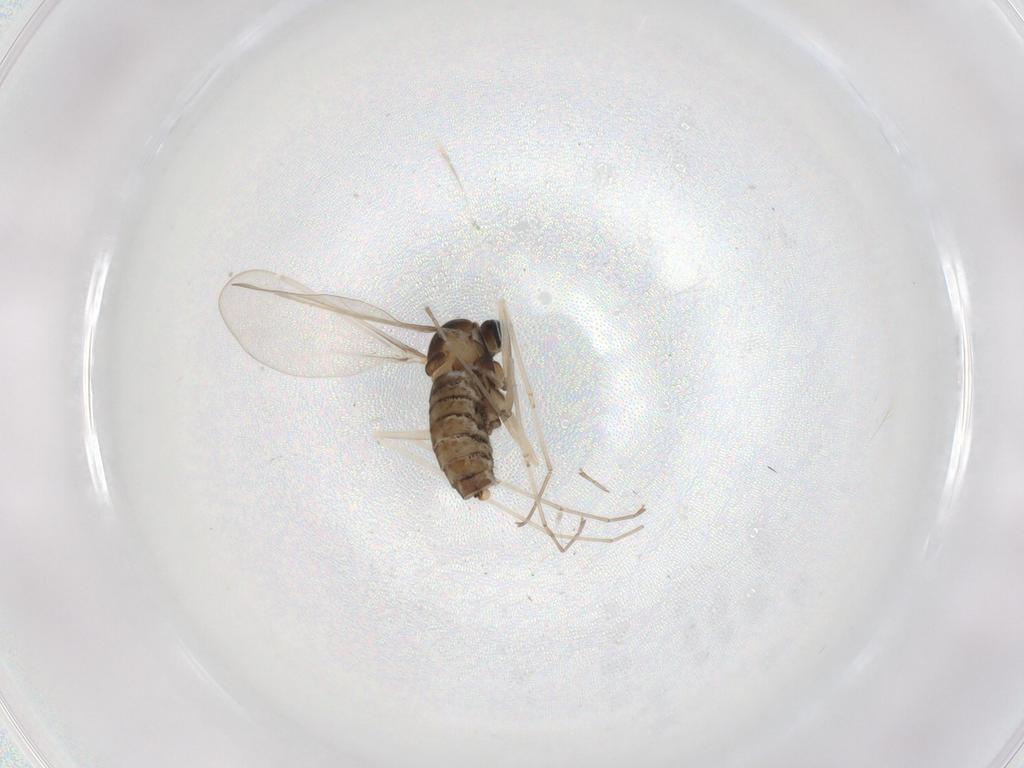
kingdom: Animalia
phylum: Arthropoda
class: Insecta
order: Diptera
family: Cecidomyiidae
